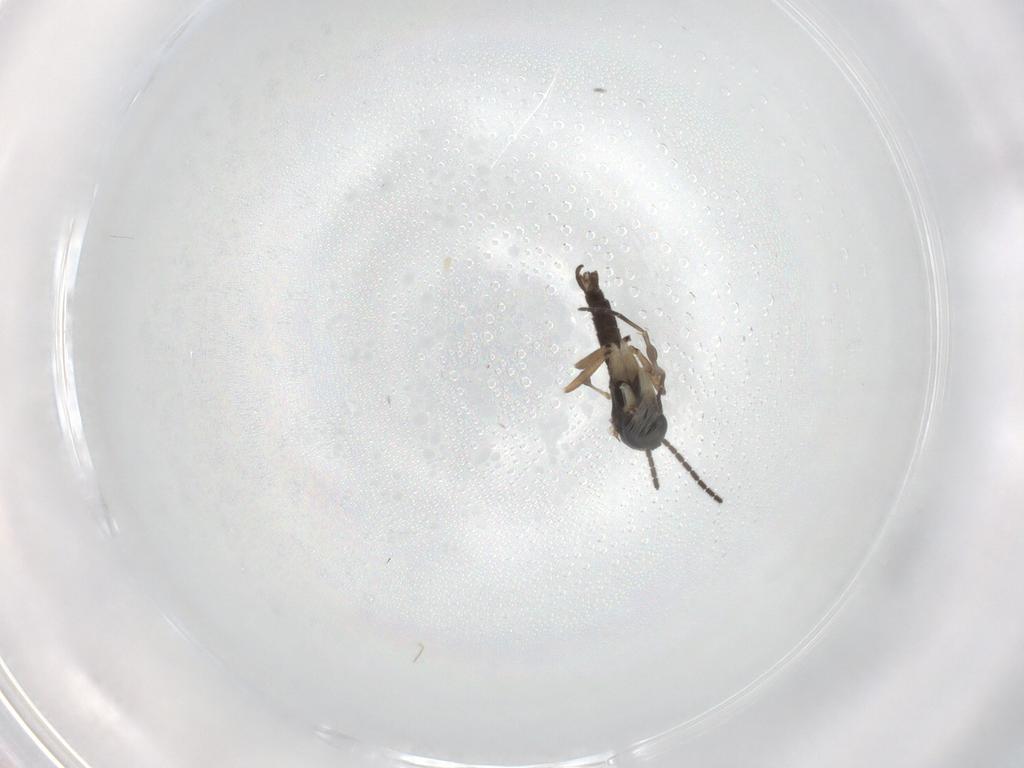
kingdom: Animalia
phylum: Arthropoda
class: Insecta
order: Diptera
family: Sciaridae
